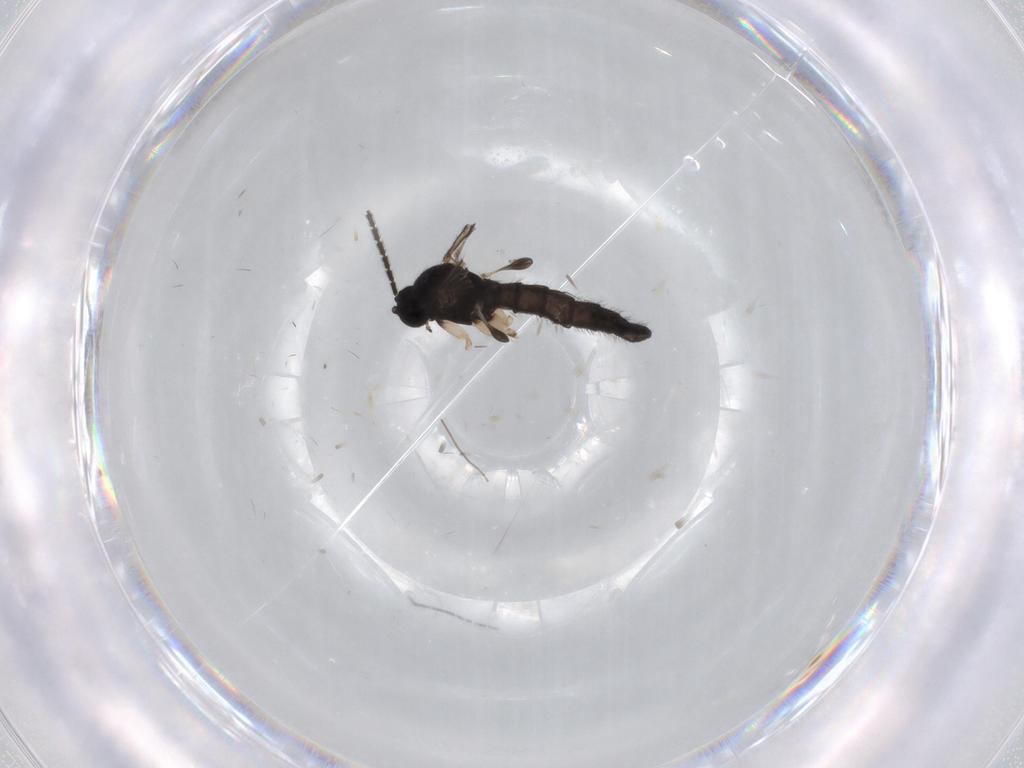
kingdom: Animalia
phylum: Arthropoda
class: Insecta
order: Diptera
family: Sciaridae
